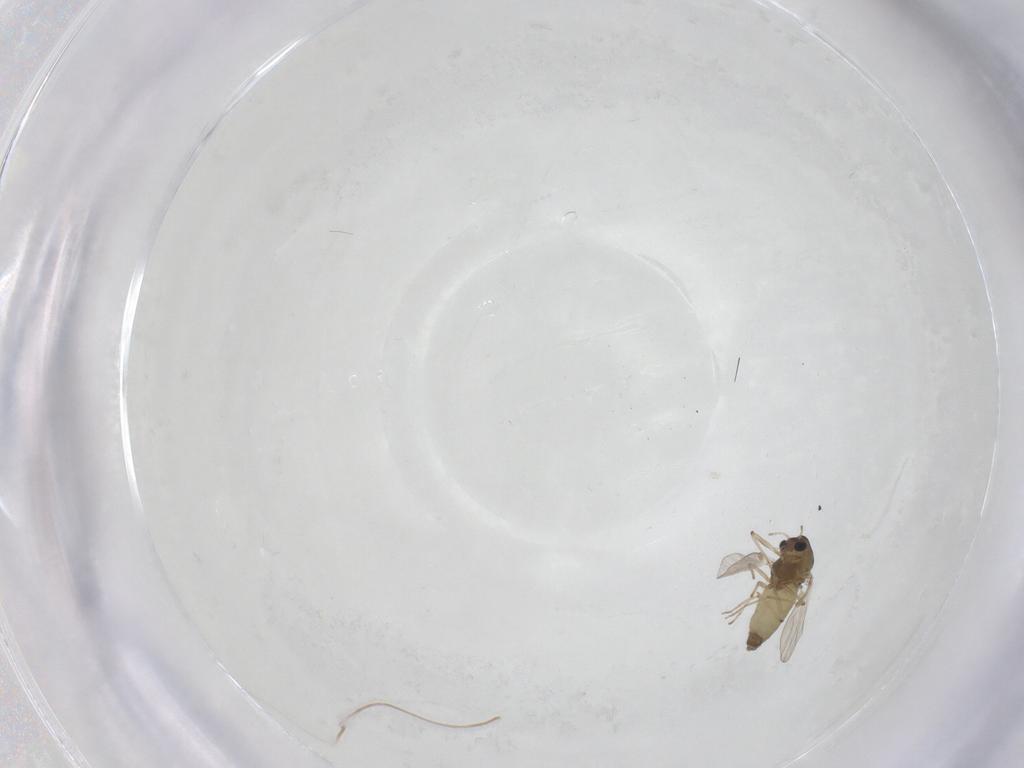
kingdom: Animalia
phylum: Arthropoda
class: Insecta
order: Diptera
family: Chironomidae
